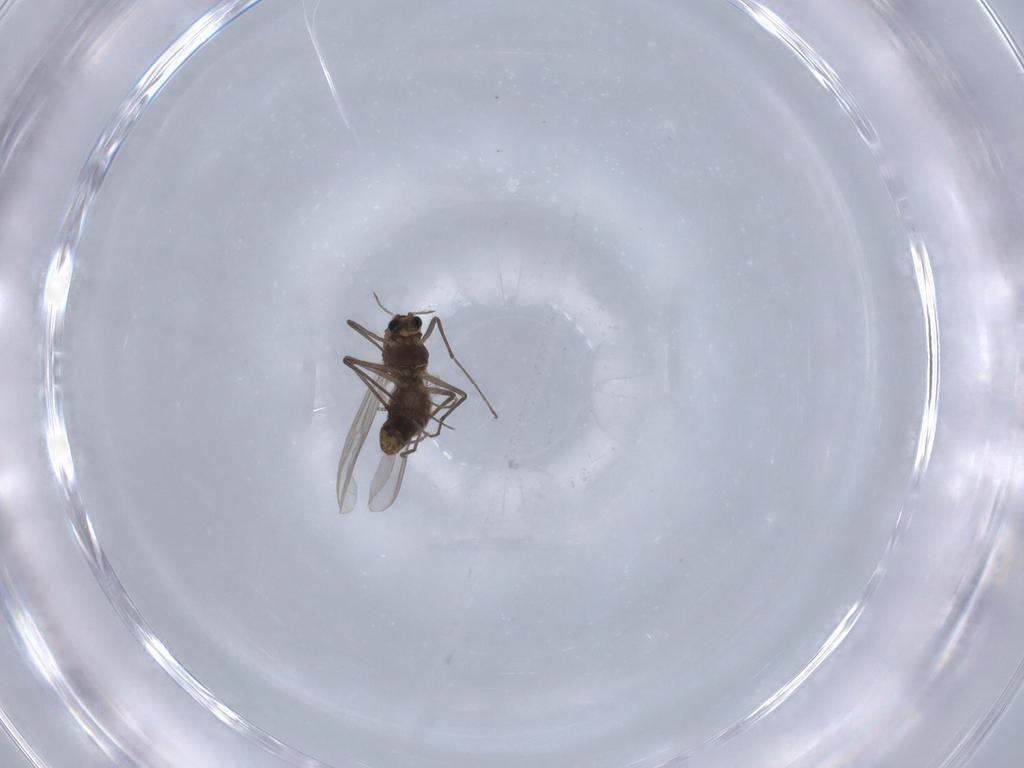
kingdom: Animalia
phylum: Arthropoda
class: Insecta
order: Diptera
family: Chironomidae
